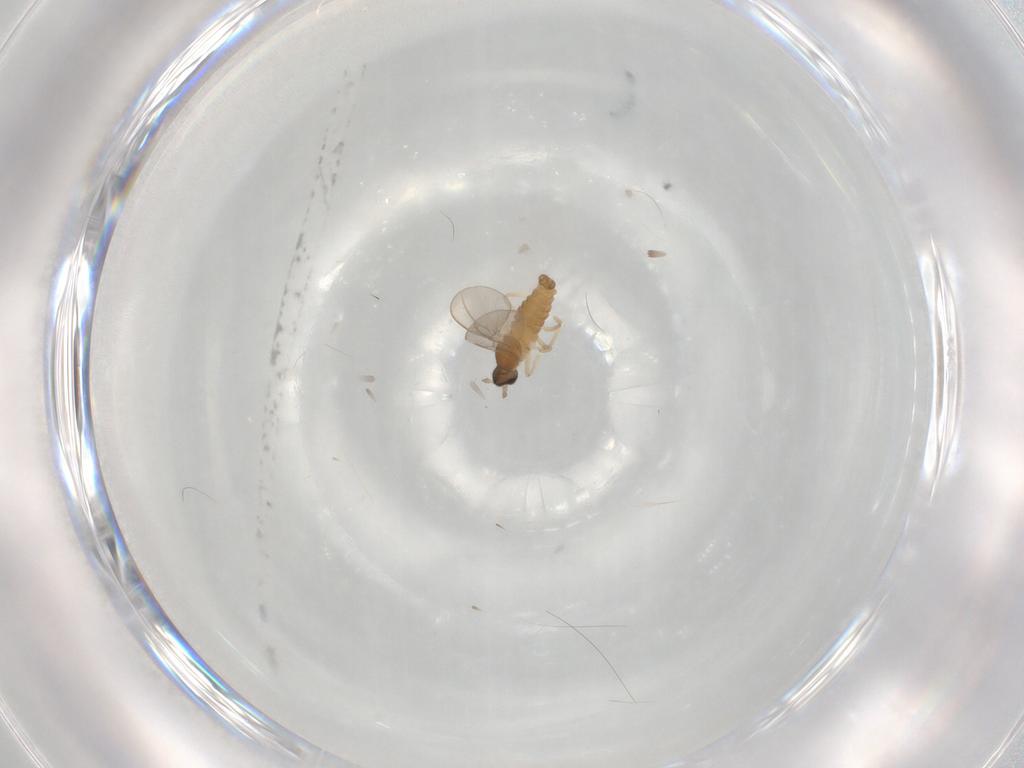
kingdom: Animalia
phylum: Arthropoda
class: Insecta
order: Diptera
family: Cecidomyiidae
